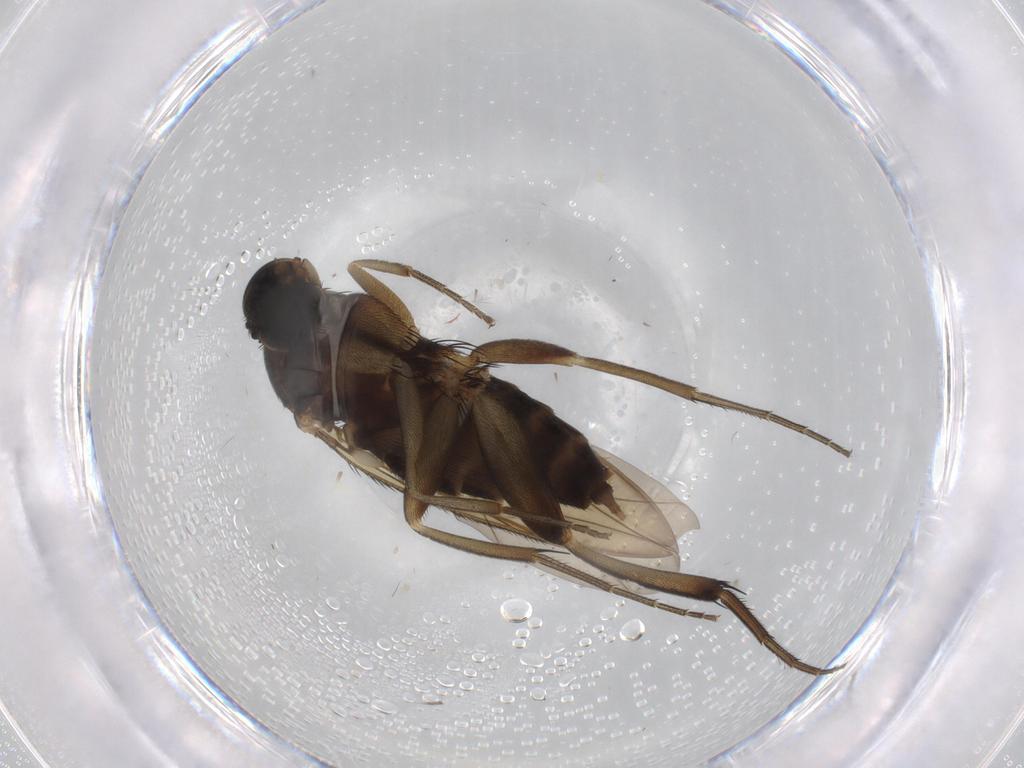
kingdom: Animalia
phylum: Arthropoda
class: Insecta
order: Diptera
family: Phoridae
